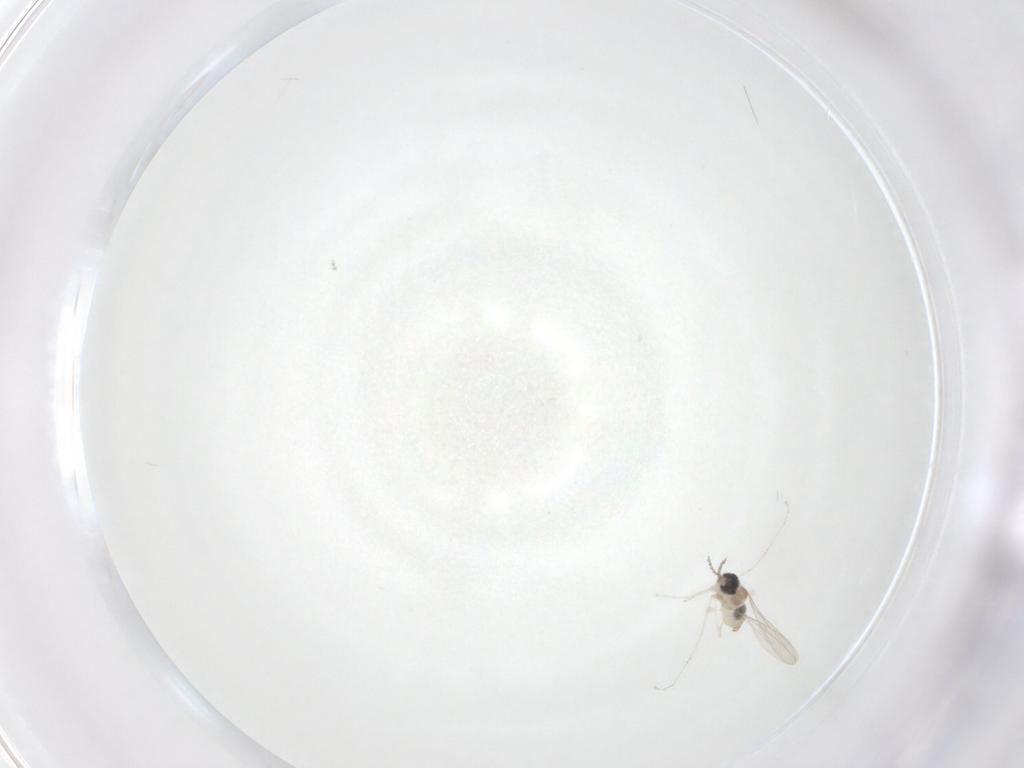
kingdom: Animalia
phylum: Arthropoda
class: Insecta
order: Diptera
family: Cecidomyiidae
